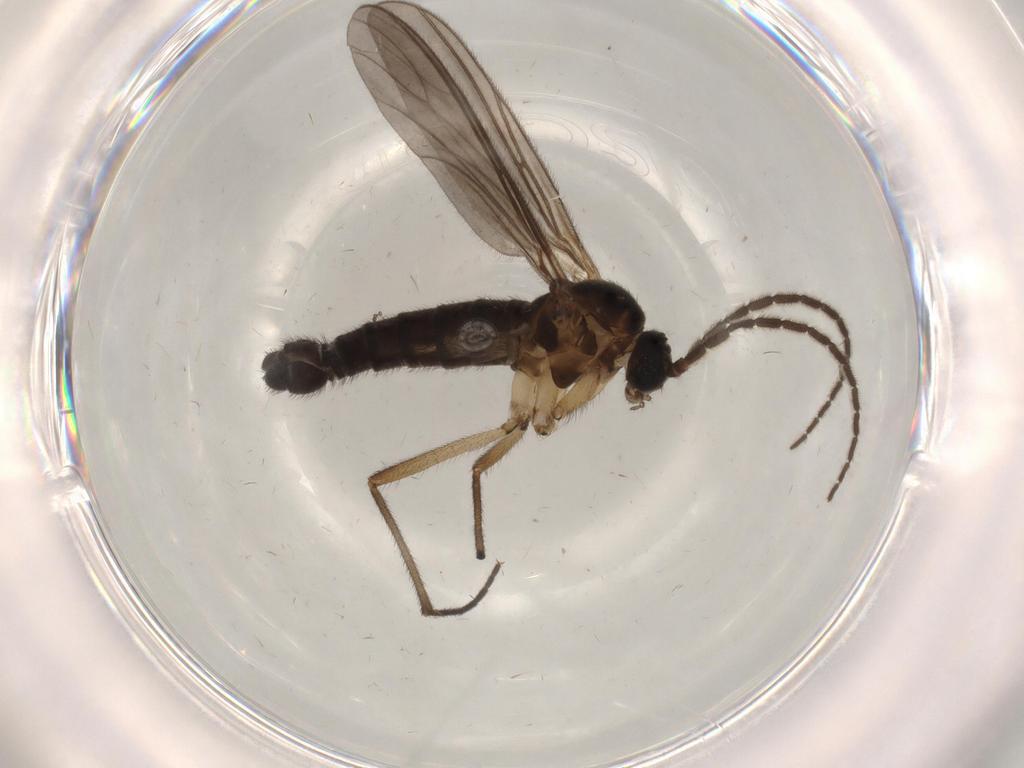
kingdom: Animalia
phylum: Arthropoda
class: Insecta
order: Diptera
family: Sciaridae
